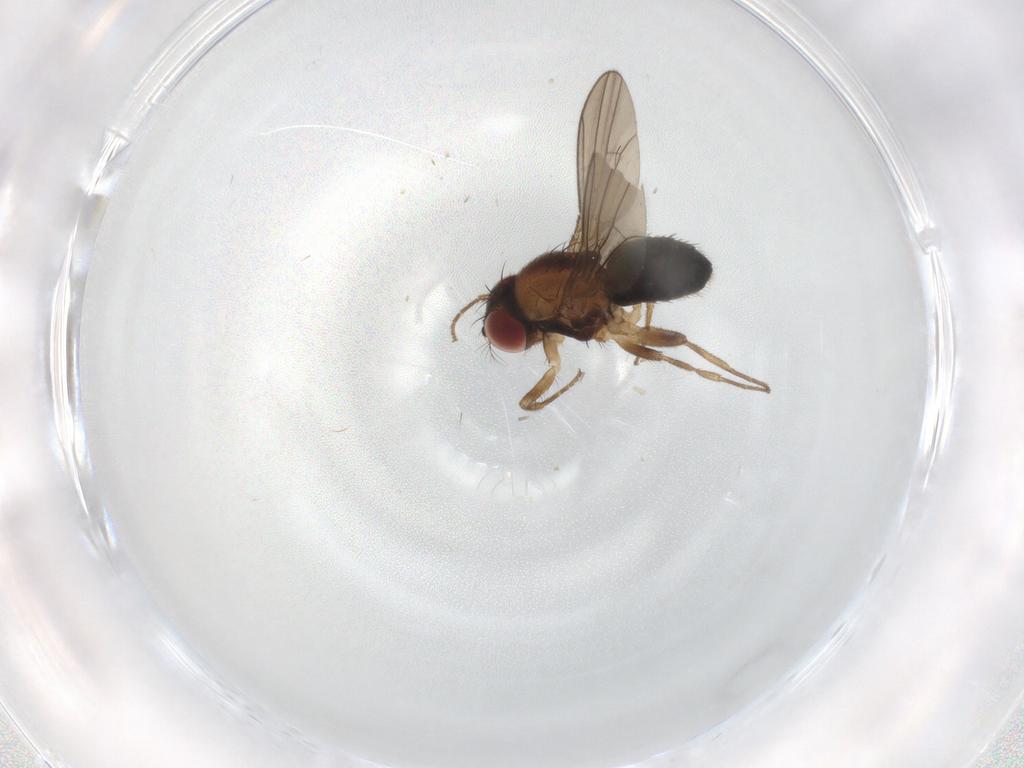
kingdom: Animalia
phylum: Arthropoda
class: Insecta
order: Diptera
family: Drosophilidae
